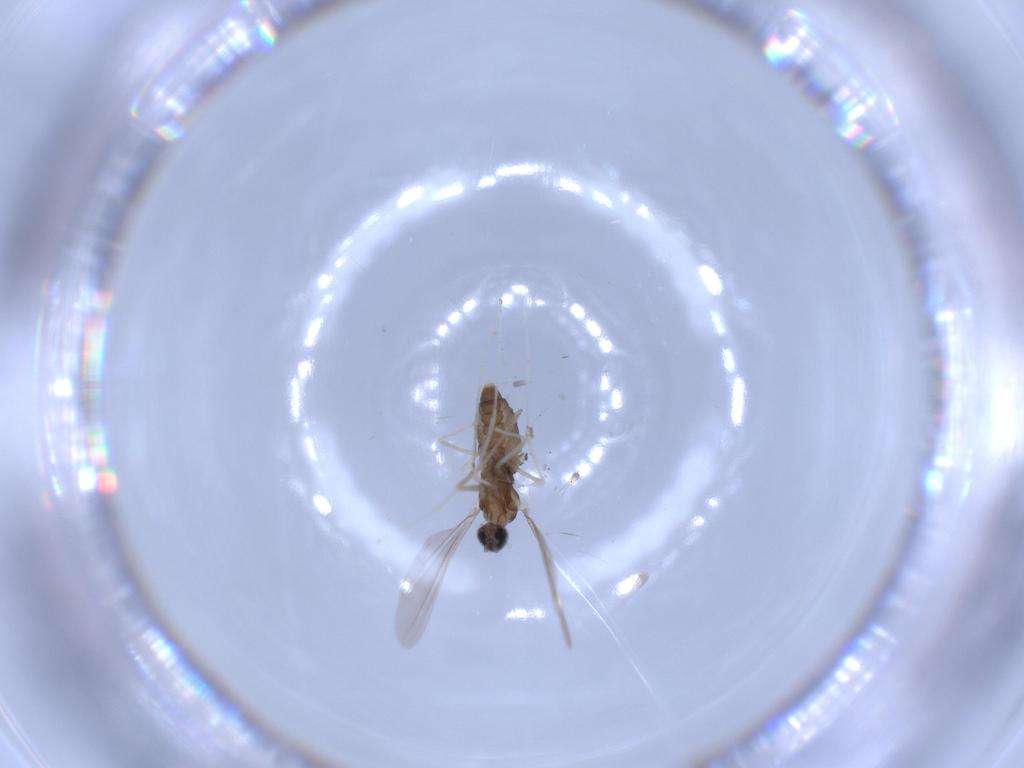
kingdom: Animalia
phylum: Arthropoda
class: Insecta
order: Diptera
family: Cecidomyiidae
